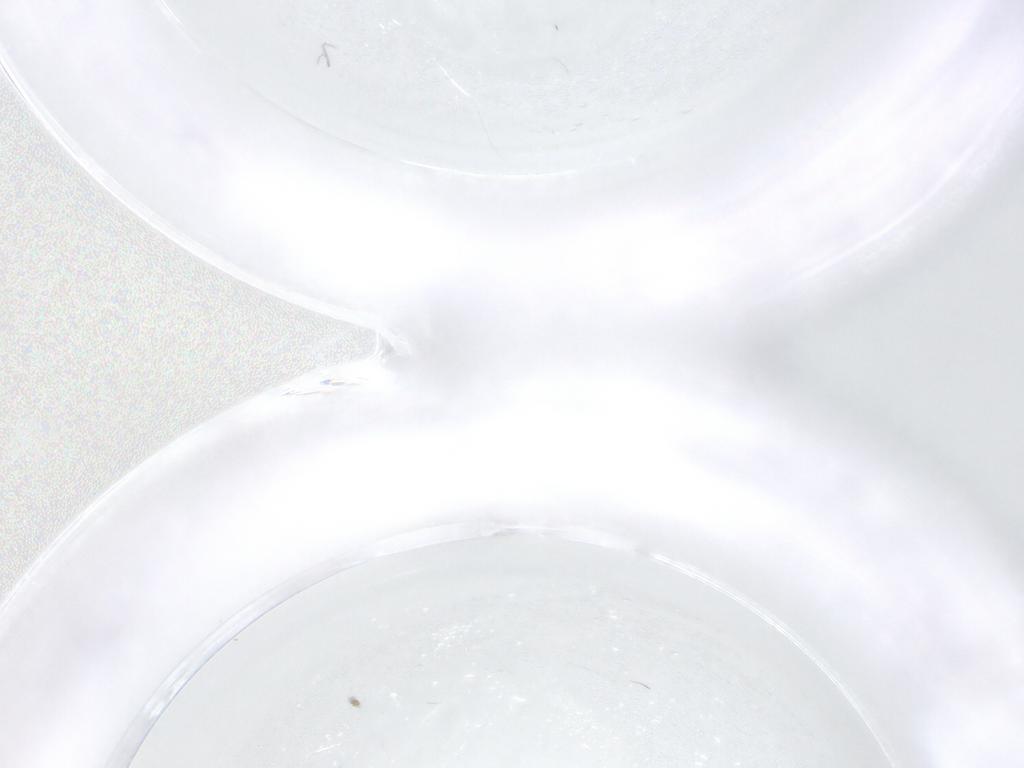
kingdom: Animalia
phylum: Arthropoda
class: Insecta
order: Diptera
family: Hybotidae
